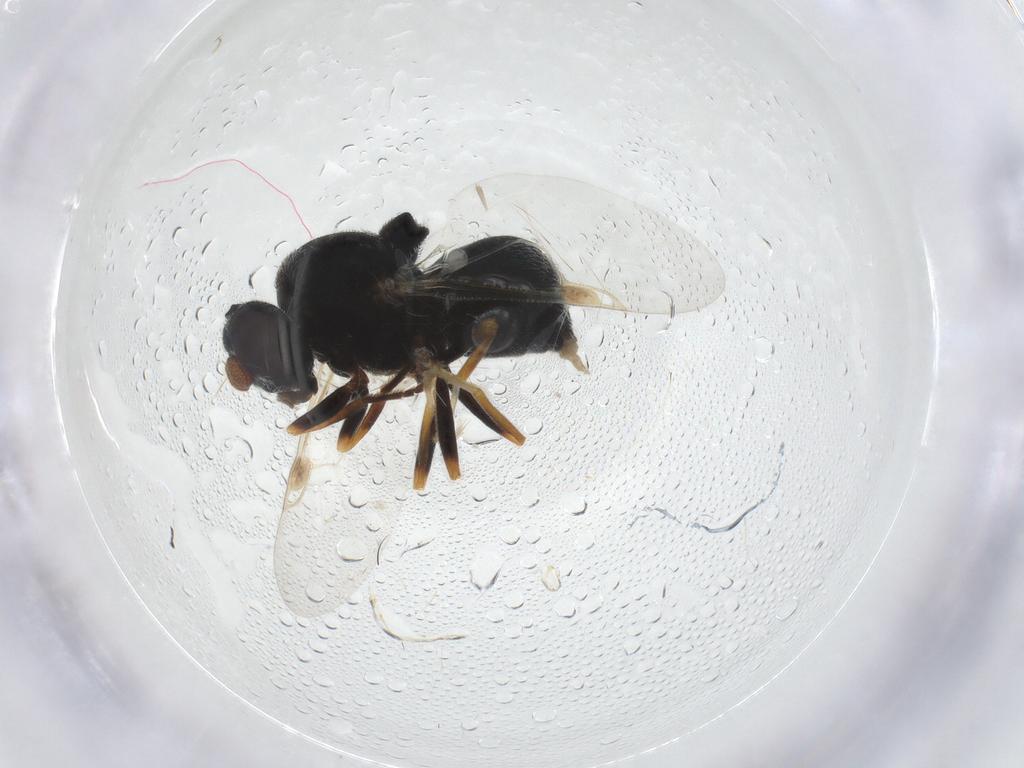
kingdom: Animalia
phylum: Arthropoda
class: Insecta
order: Diptera
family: Stratiomyidae
